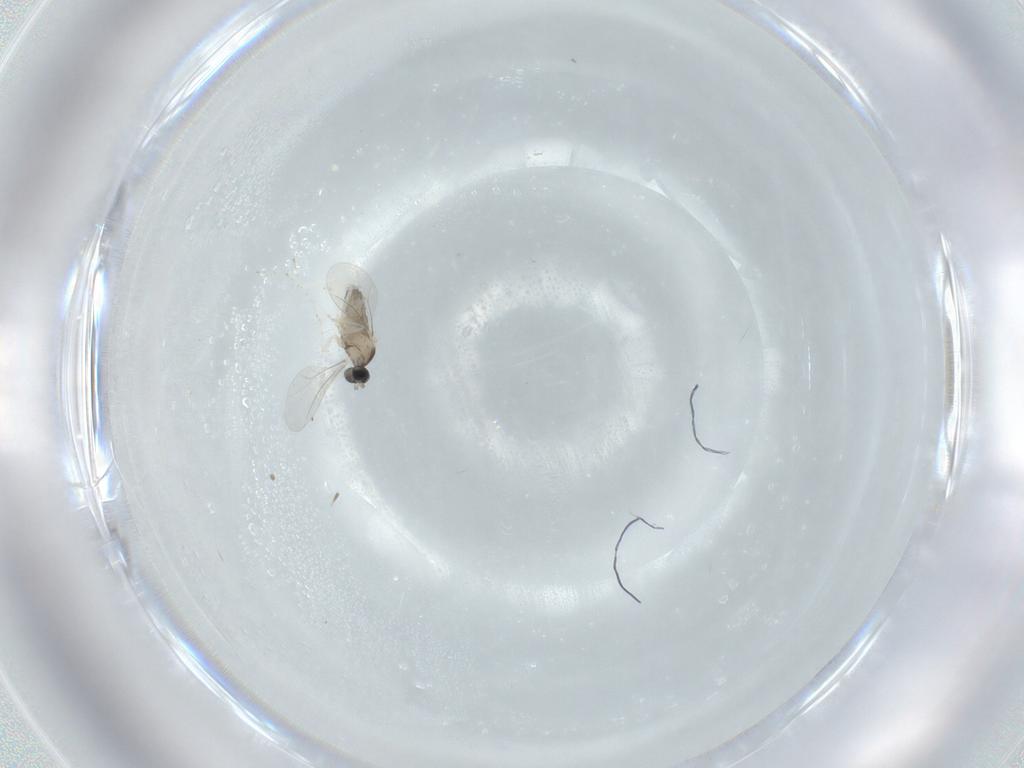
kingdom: Animalia
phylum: Arthropoda
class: Insecta
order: Diptera
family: Cecidomyiidae
